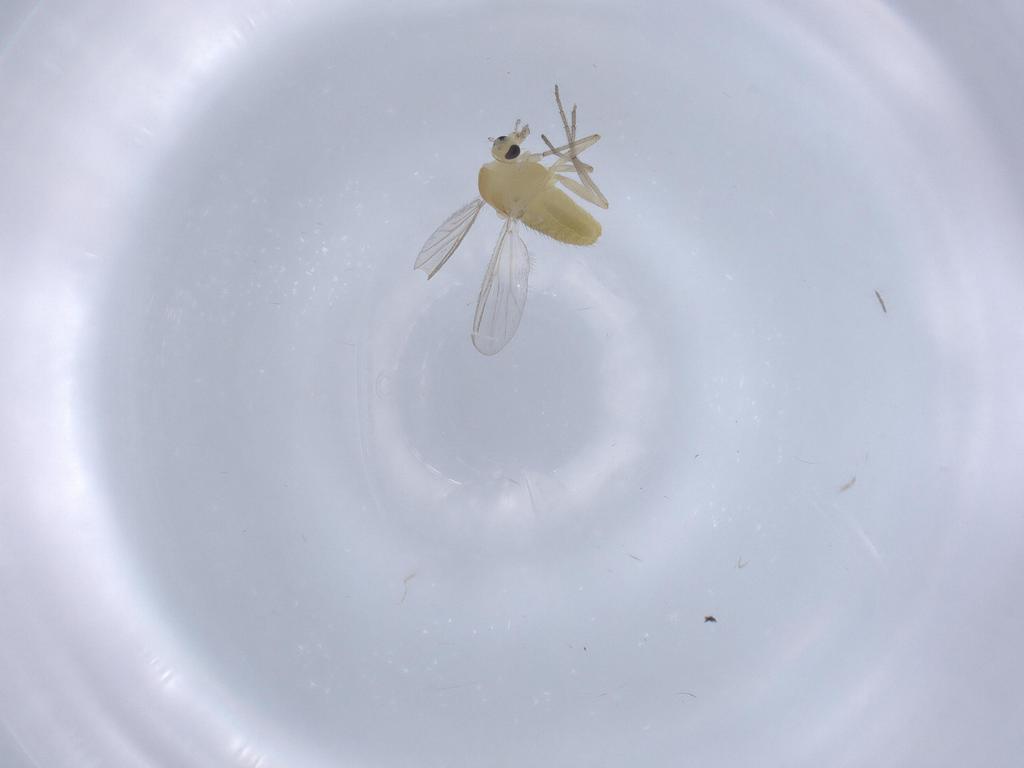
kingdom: Animalia
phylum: Arthropoda
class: Insecta
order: Diptera
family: Chironomidae
